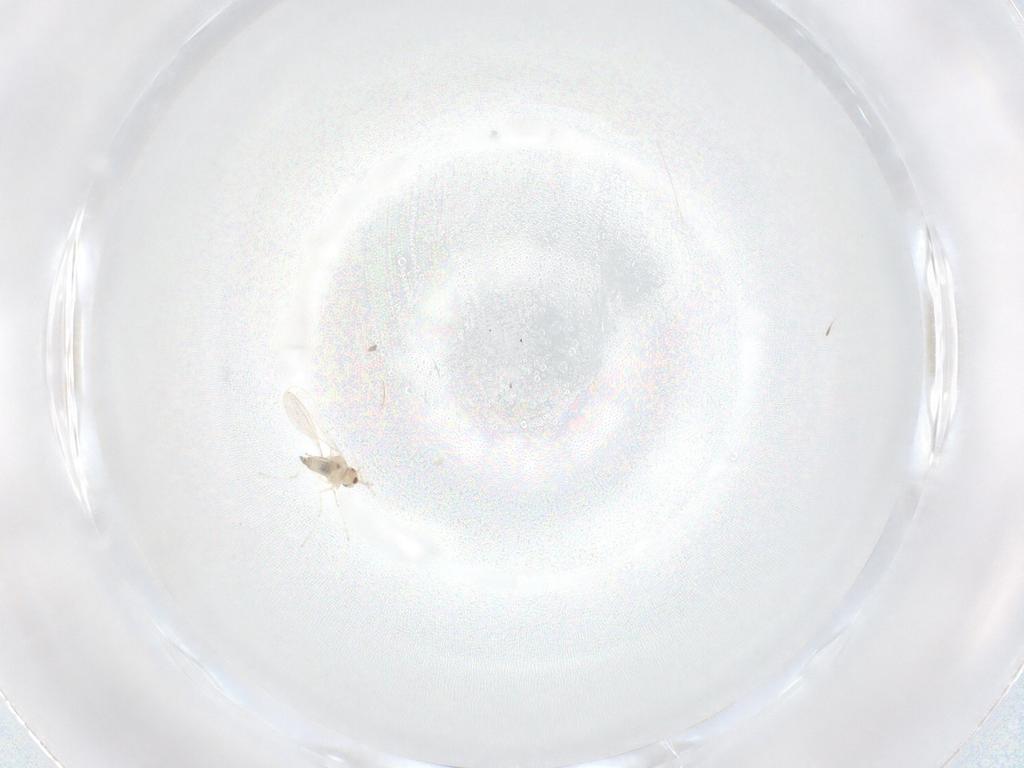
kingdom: Animalia
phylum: Arthropoda
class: Insecta
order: Diptera
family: Cecidomyiidae
